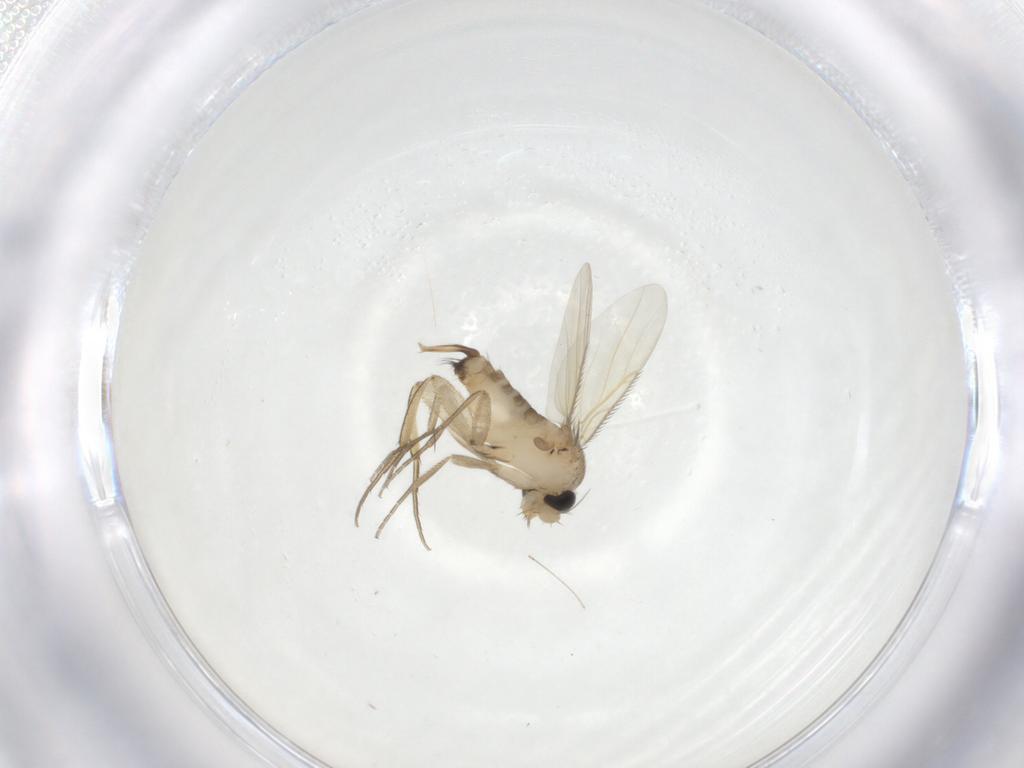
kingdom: Animalia
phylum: Arthropoda
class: Insecta
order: Diptera
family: Phoridae
